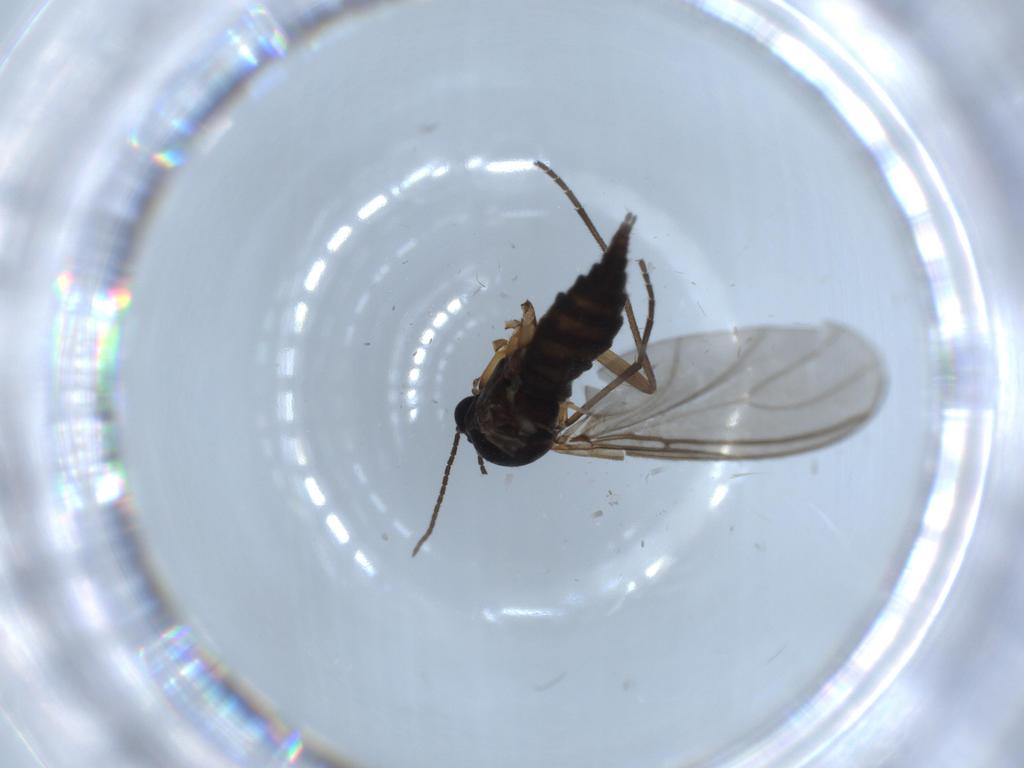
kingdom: Animalia
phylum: Arthropoda
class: Insecta
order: Diptera
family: Sciaridae
